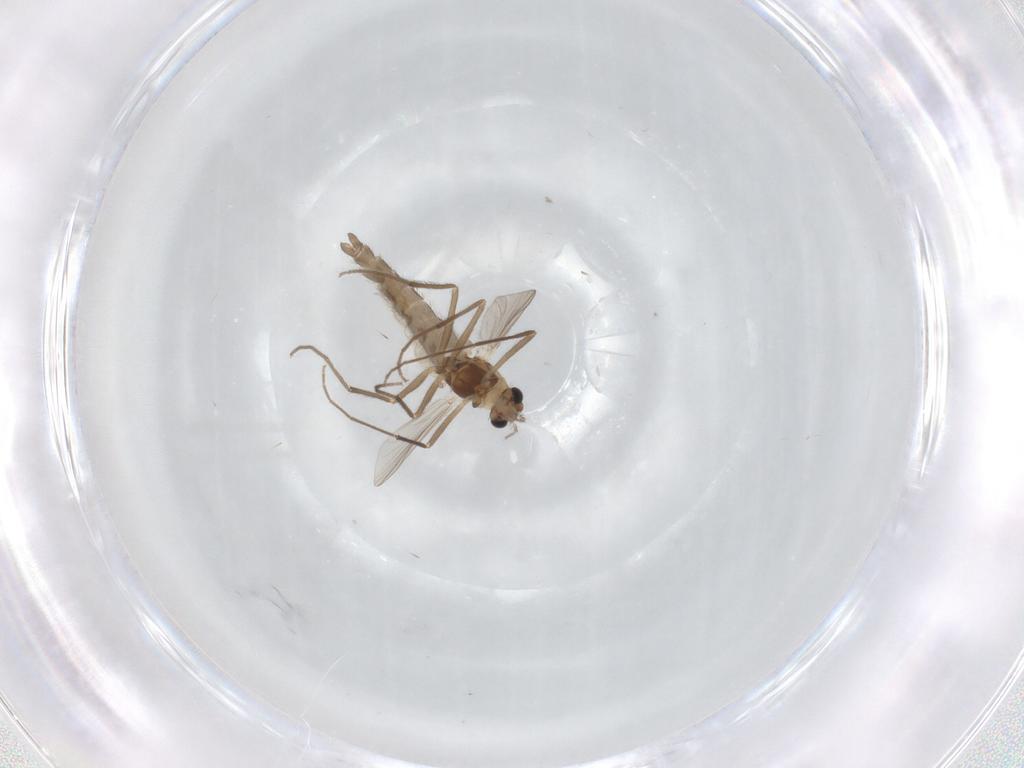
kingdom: Animalia
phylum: Arthropoda
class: Insecta
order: Diptera
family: Chironomidae
